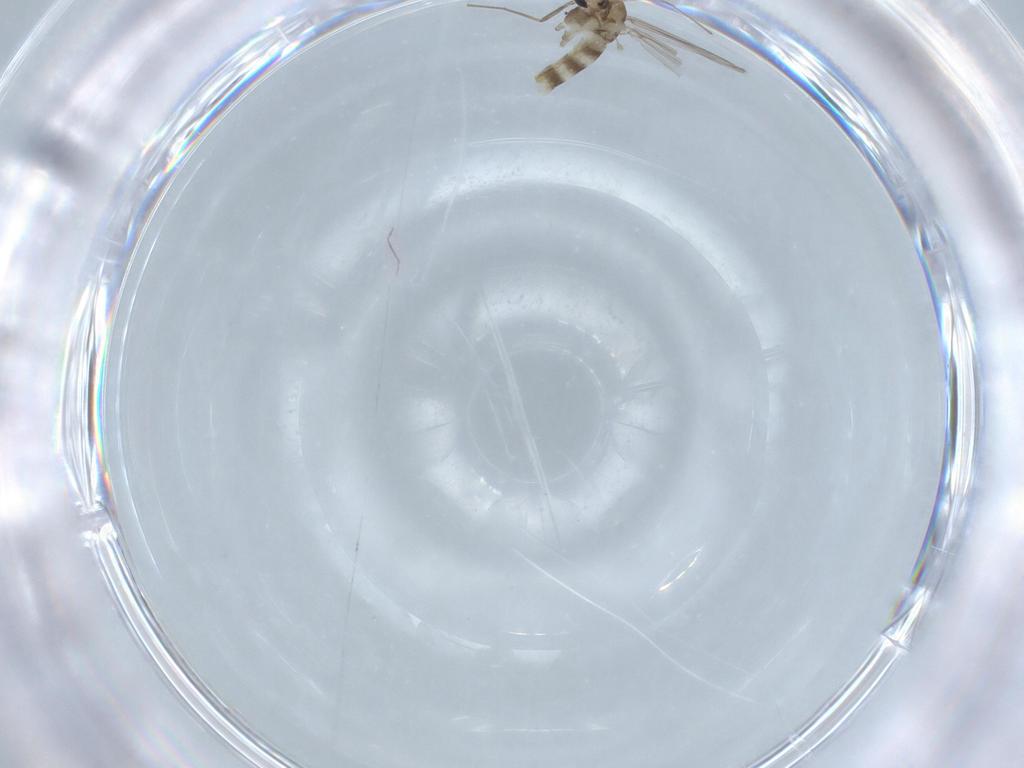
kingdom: Animalia
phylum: Arthropoda
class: Insecta
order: Diptera
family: Chironomidae
